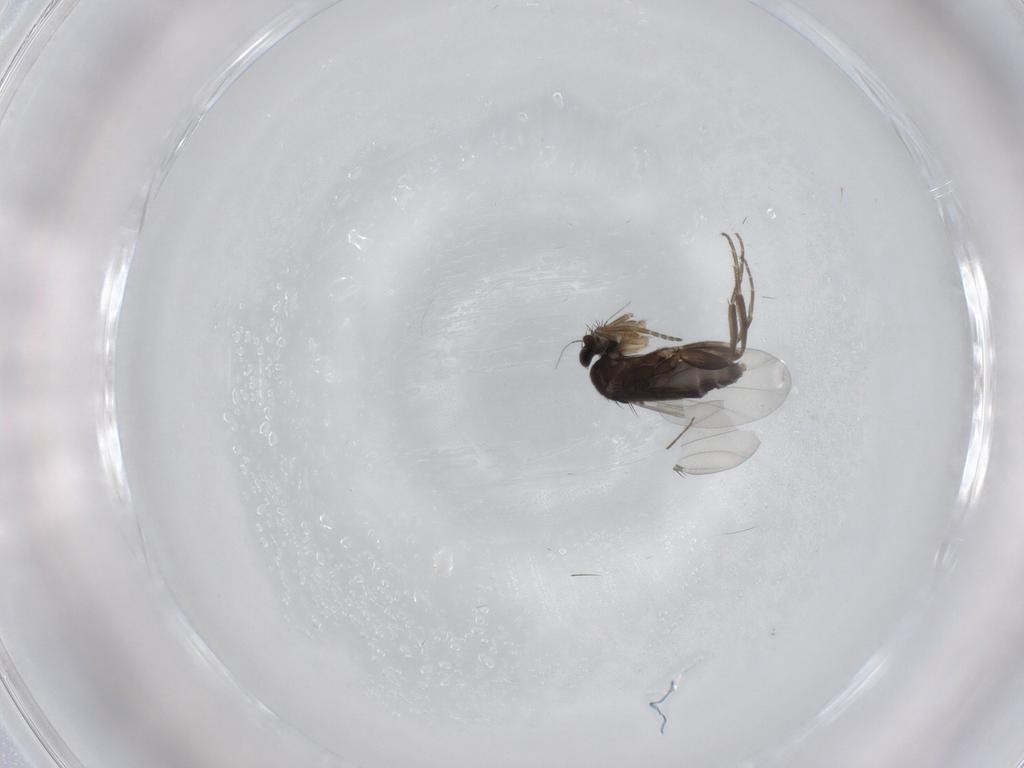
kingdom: Animalia
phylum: Arthropoda
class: Insecta
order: Diptera
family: Phoridae
